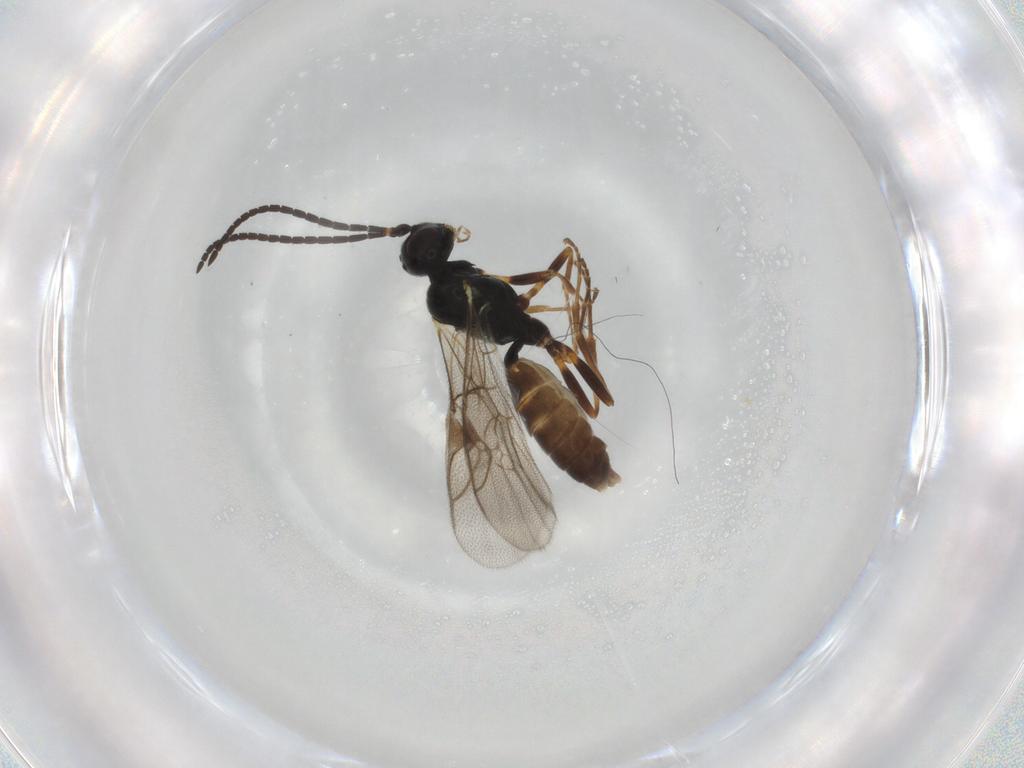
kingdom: Animalia
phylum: Arthropoda
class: Insecta
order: Hymenoptera
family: Ichneumonidae
